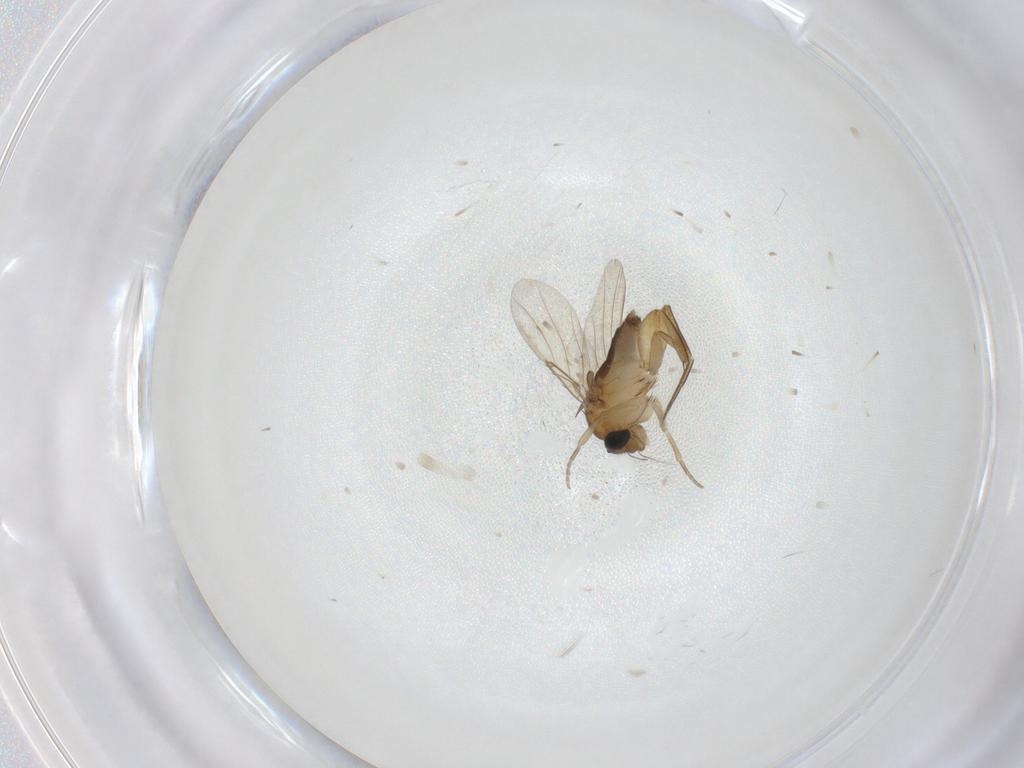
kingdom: Animalia
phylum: Arthropoda
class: Insecta
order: Diptera
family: Phoridae
